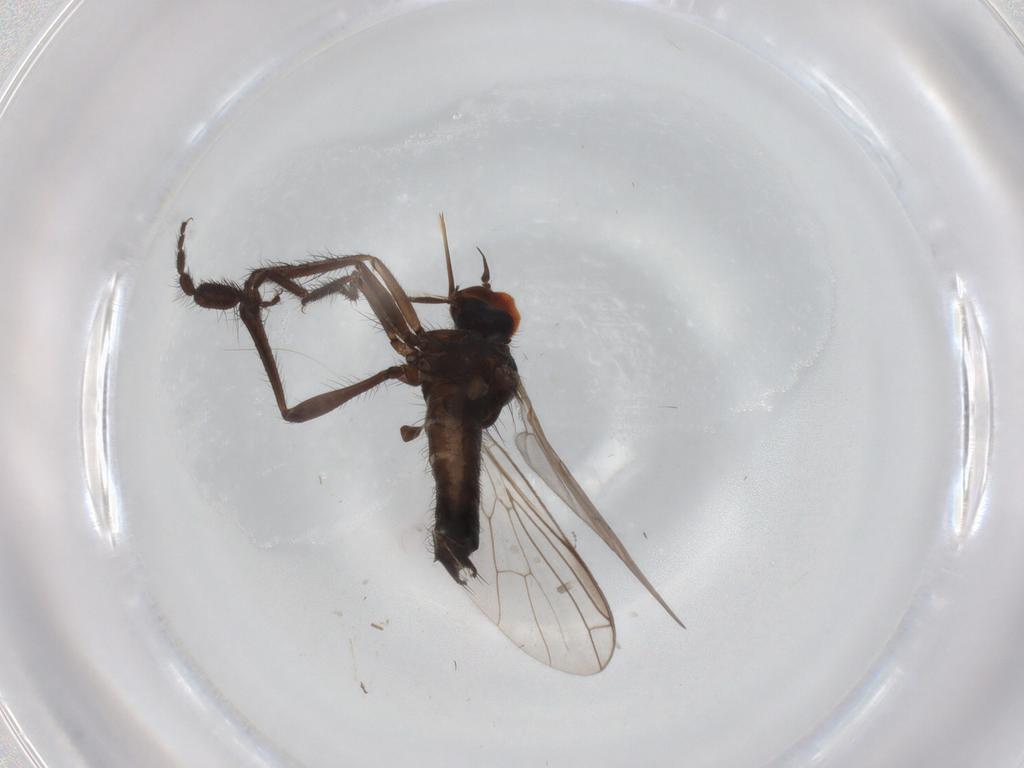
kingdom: Animalia
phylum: Arthropoda
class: Insecta
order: Diptera
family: Empididae
